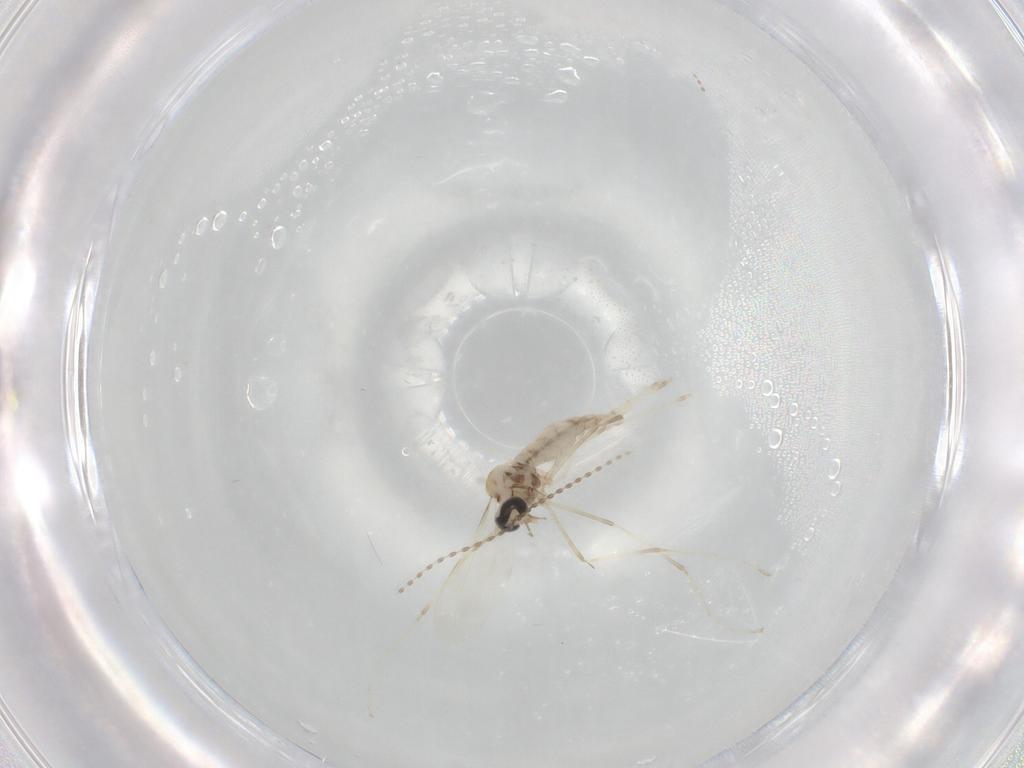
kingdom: Animalia
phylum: Arthropoda
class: Insecta
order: Diptera
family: Cecidomyiidae
